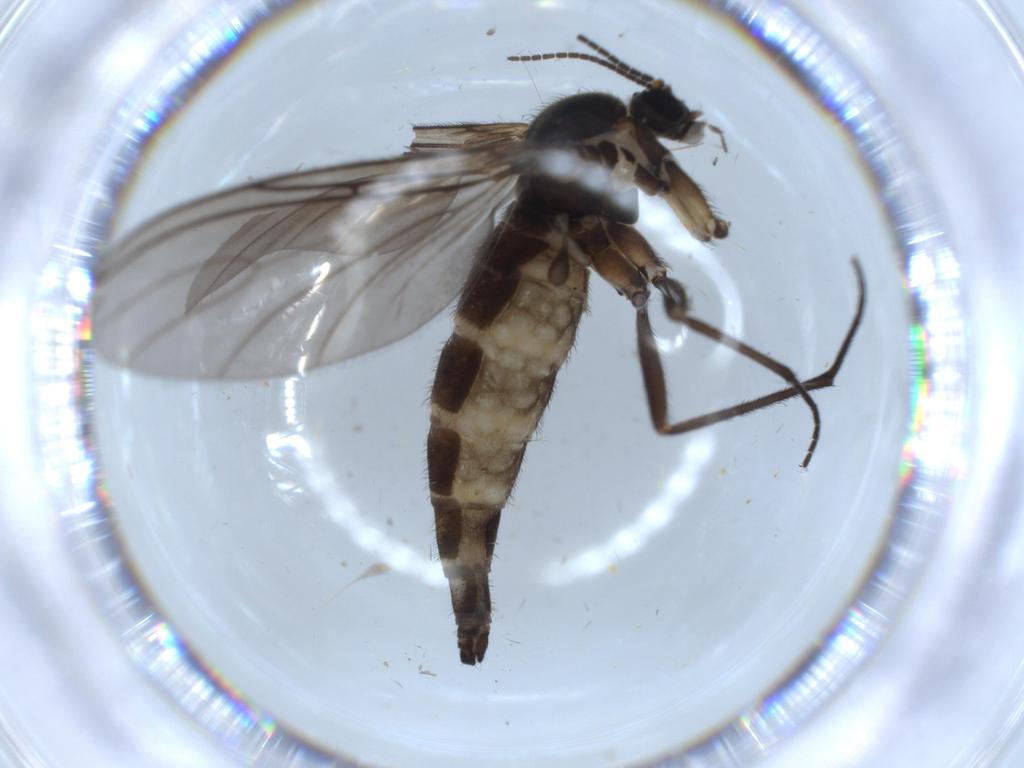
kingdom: Animalia
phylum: Arthropoda
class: Insecta
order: Diptera
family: Sciaridae
